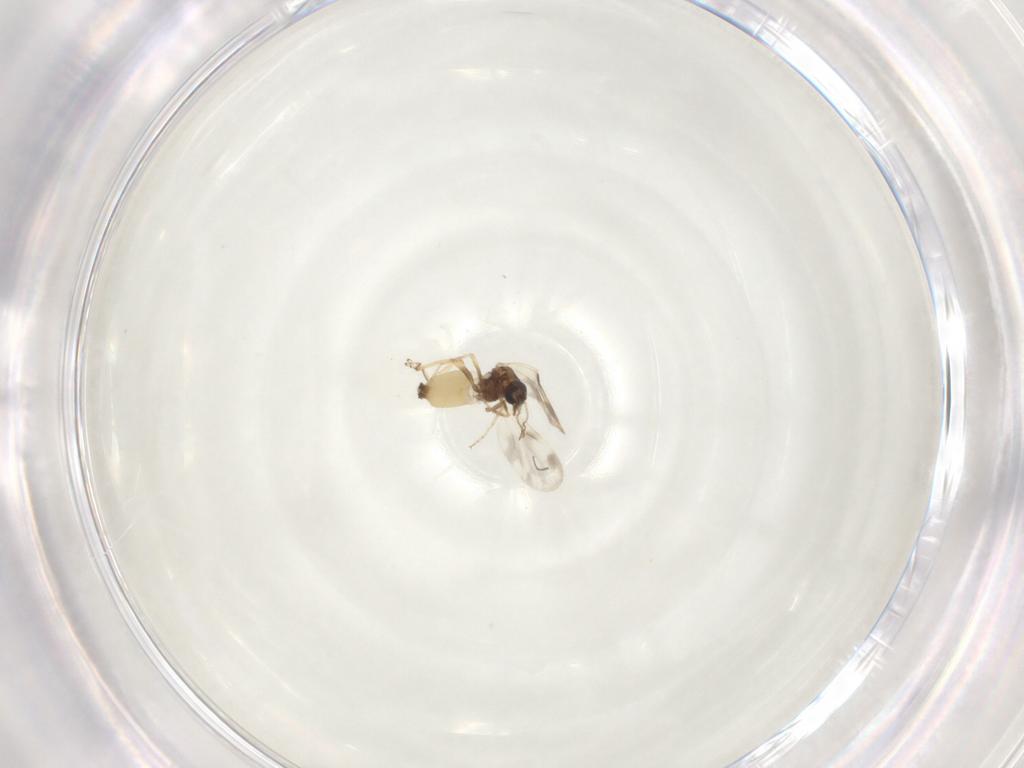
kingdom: Animalia
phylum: Arthropoda
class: Insecta
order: Diptera
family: Ceratopogonidae
